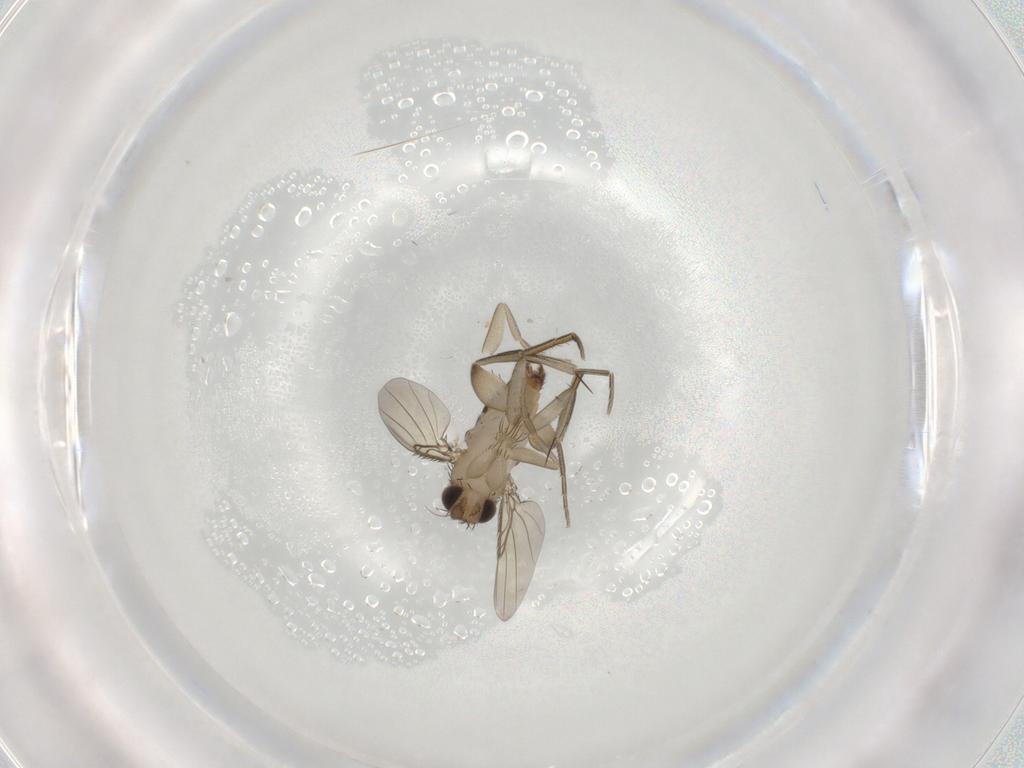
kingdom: Animalia
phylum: Arthropoda
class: Insecta
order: Diptera
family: Phoridae
